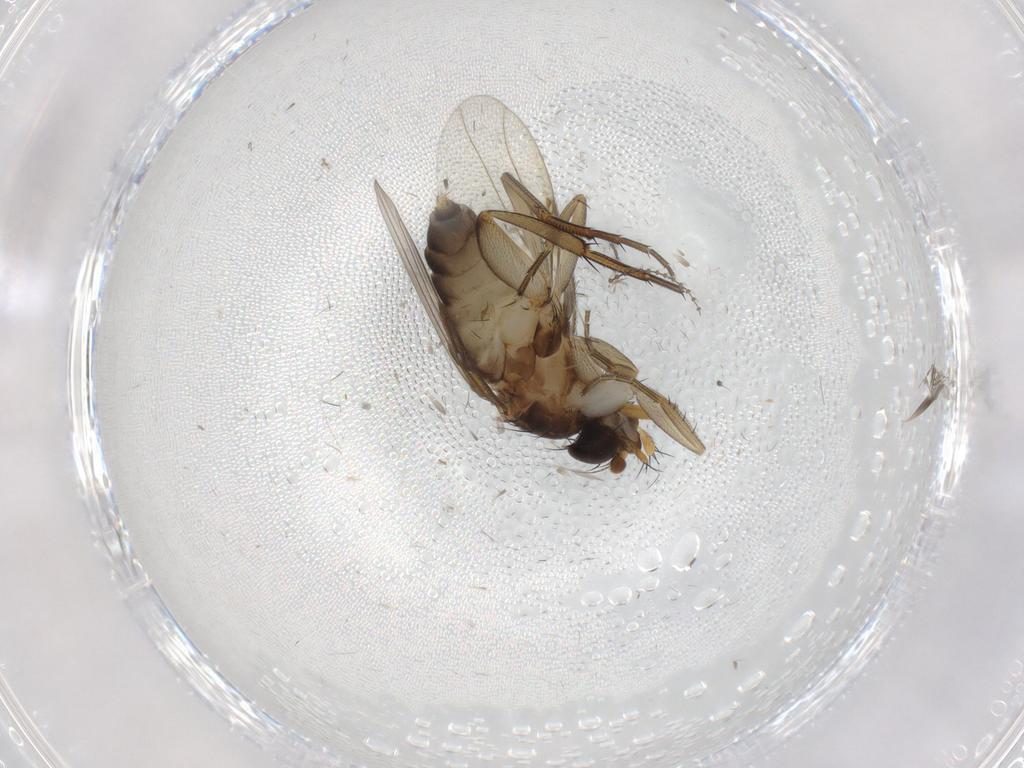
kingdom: Animalia
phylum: Arthropoda
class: Insecta
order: Diptera
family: Phoridae
